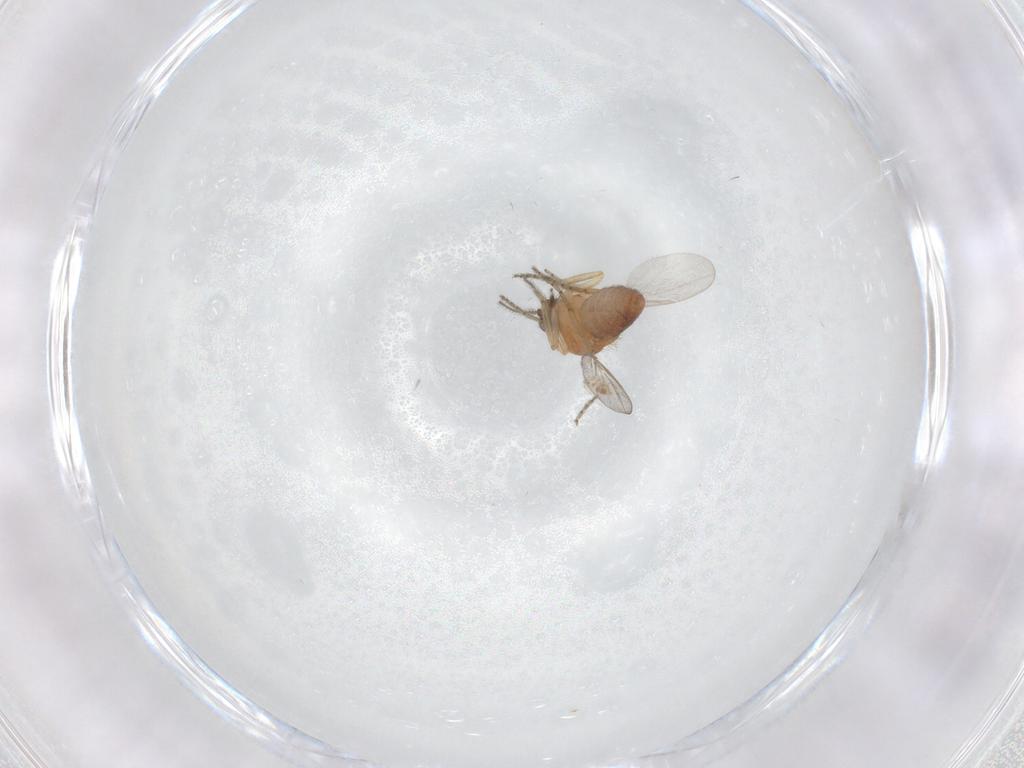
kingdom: Animalia
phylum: Arthropoda
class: Insecta
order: Diptera
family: Ceratopogonidae
